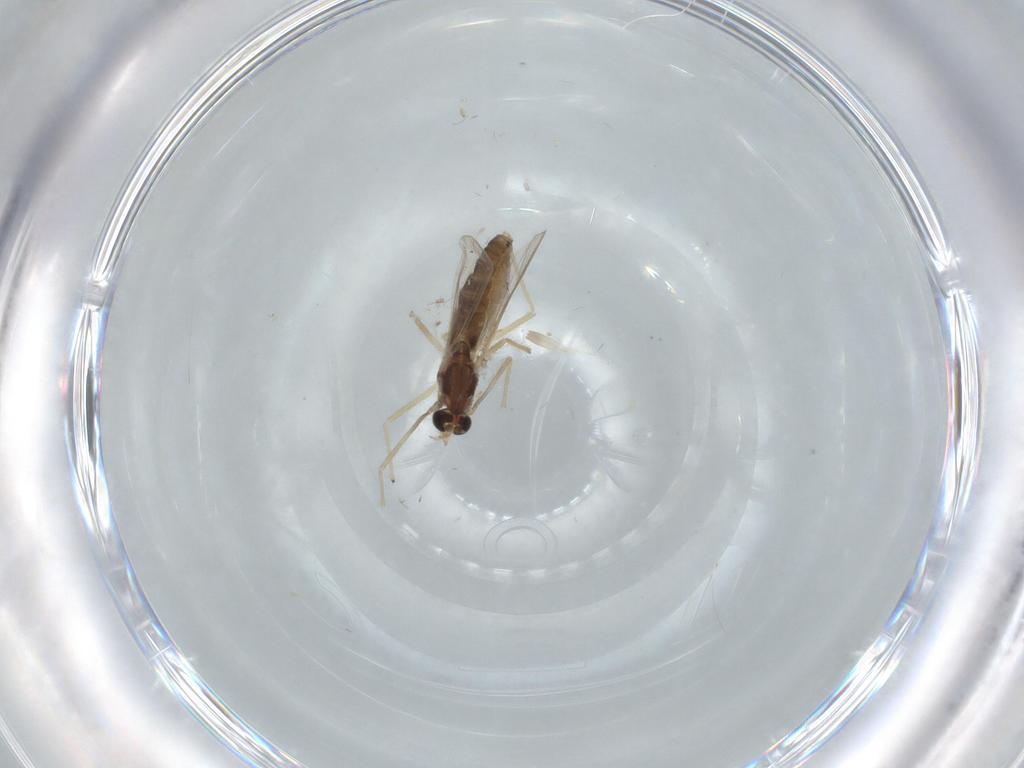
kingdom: Animalia
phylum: Arthropoda
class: Insecta
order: Diptera
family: Chironomidae
